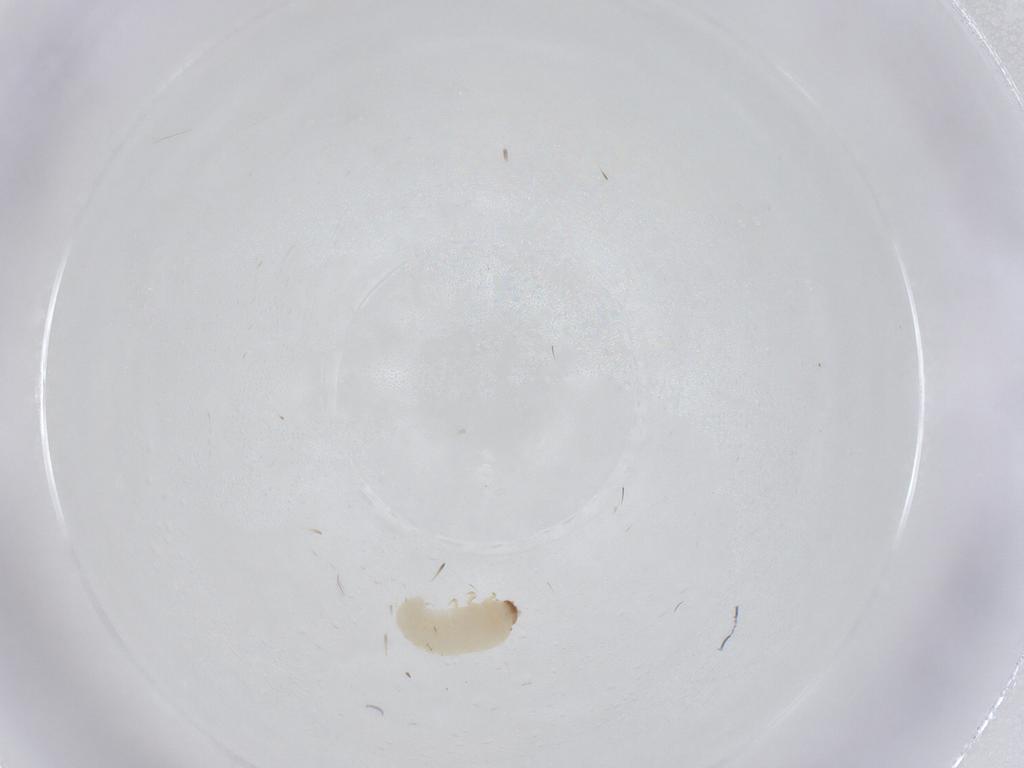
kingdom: Animalia
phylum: Arthropoda
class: Insecta
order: Coleoptera
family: Bostrichidae
